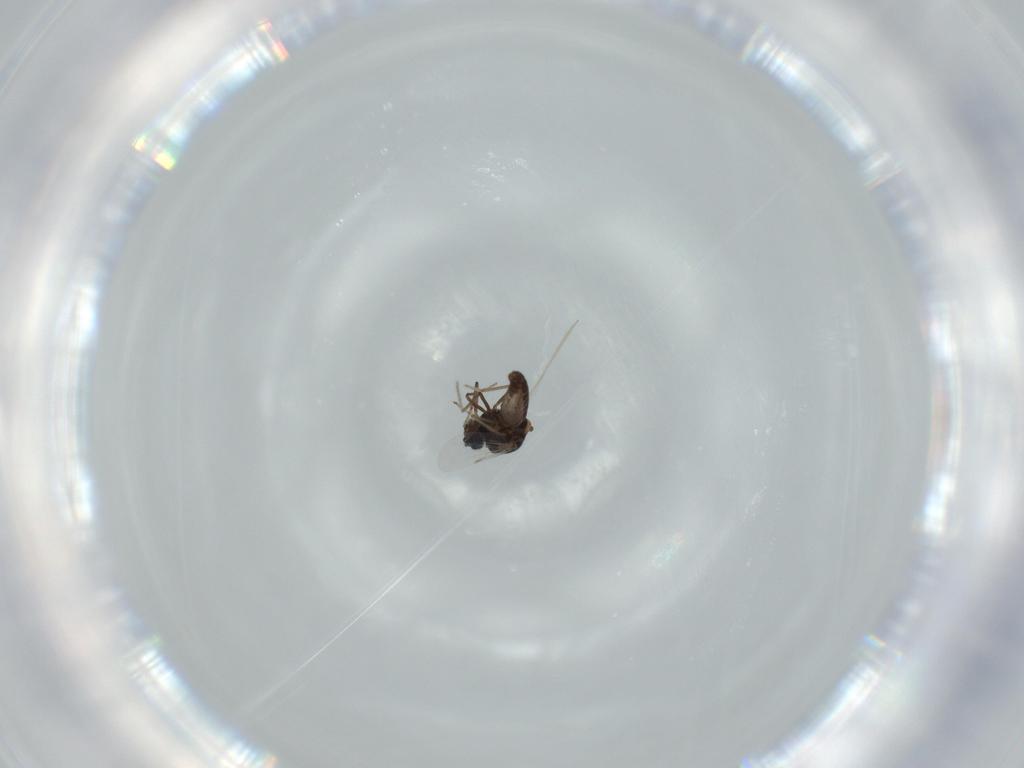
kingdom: Animalia
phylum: Arthropoda
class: Insecta
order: Diptera
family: Ceratopogonidae
